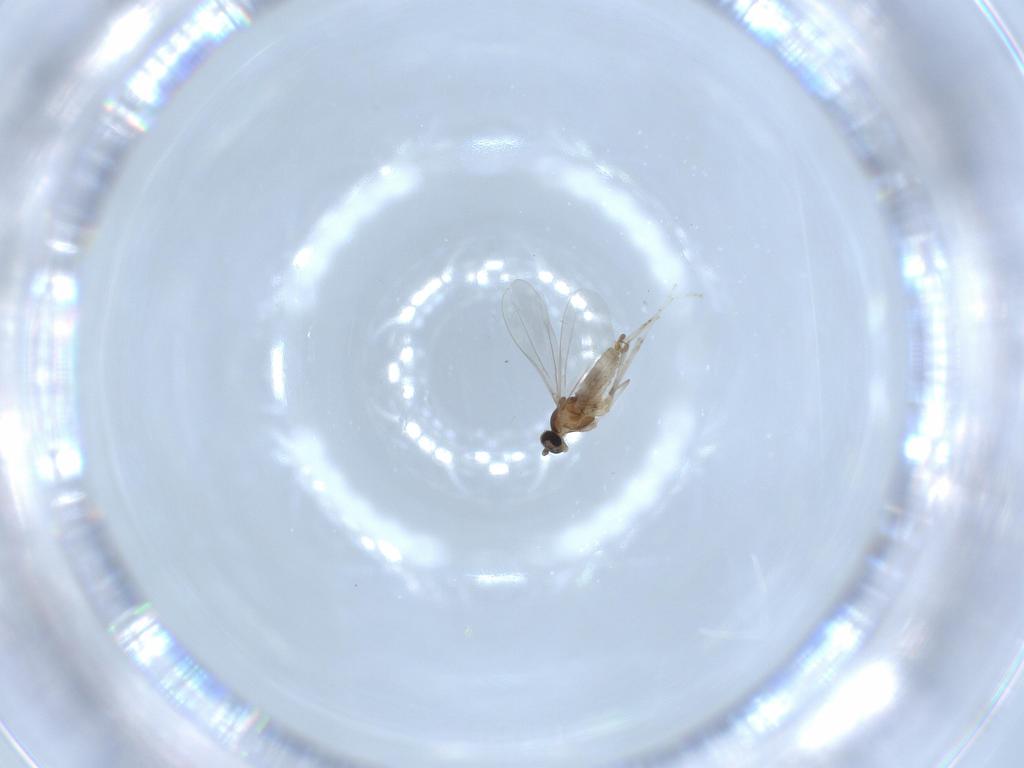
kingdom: Animalia
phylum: Arthropoda
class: Insecta
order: Diptera
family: Cecidomyiidae
